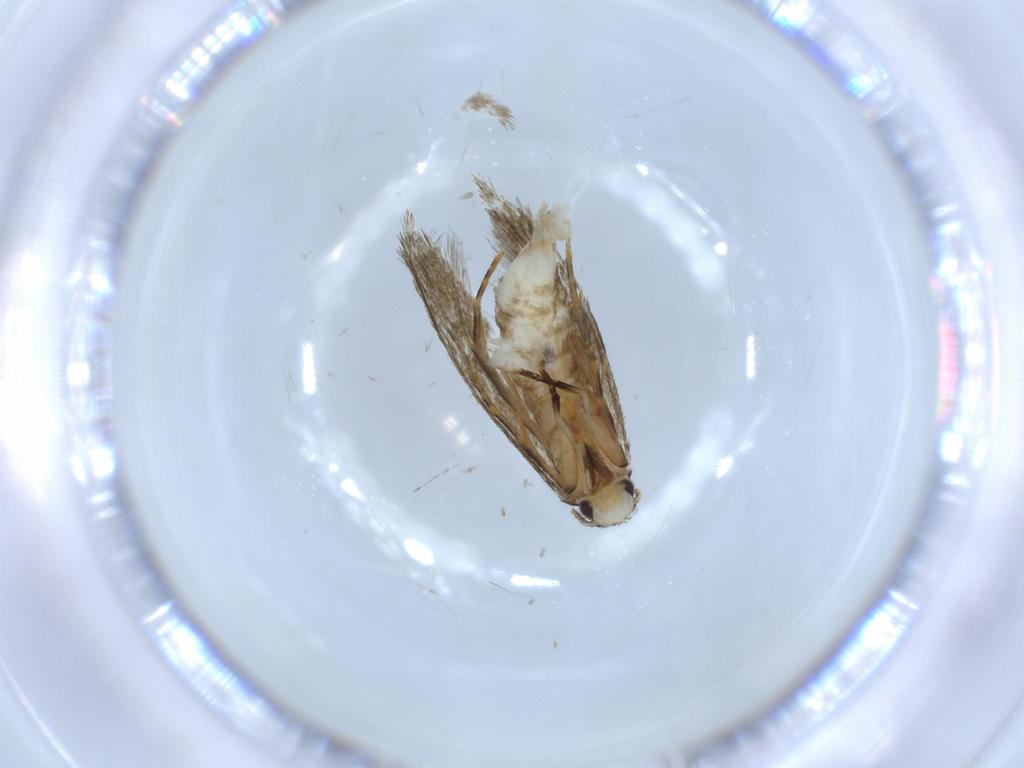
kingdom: Animalia
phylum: Arthropoda
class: Insecta
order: Lepidoptera
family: Tineidae
